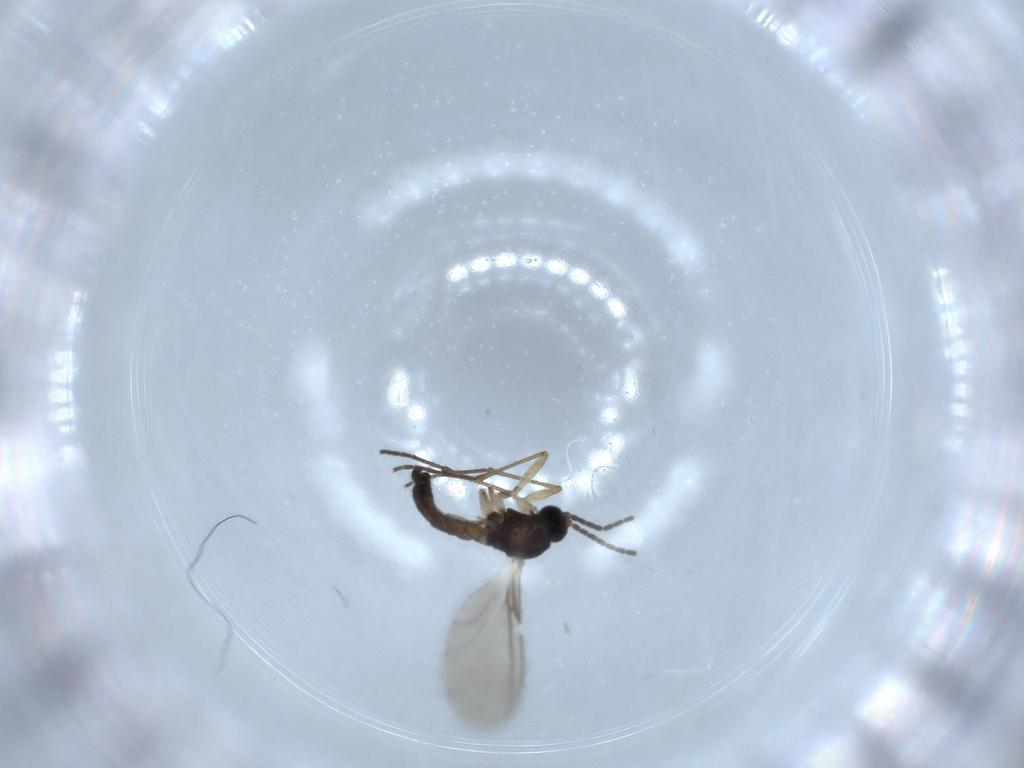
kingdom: Animalia
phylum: Arthropoda
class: Insecta
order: Diptera
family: Sciaridae
